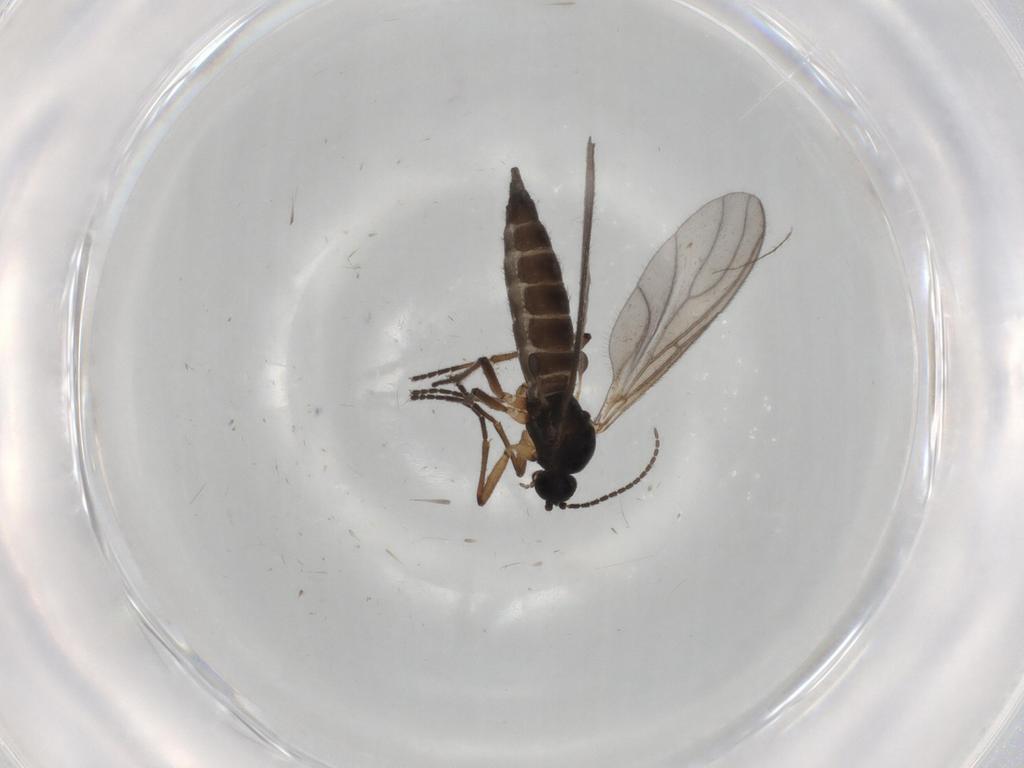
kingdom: Animalia
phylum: Arthropoda
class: Insecta
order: Diptera
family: Sciaridae
